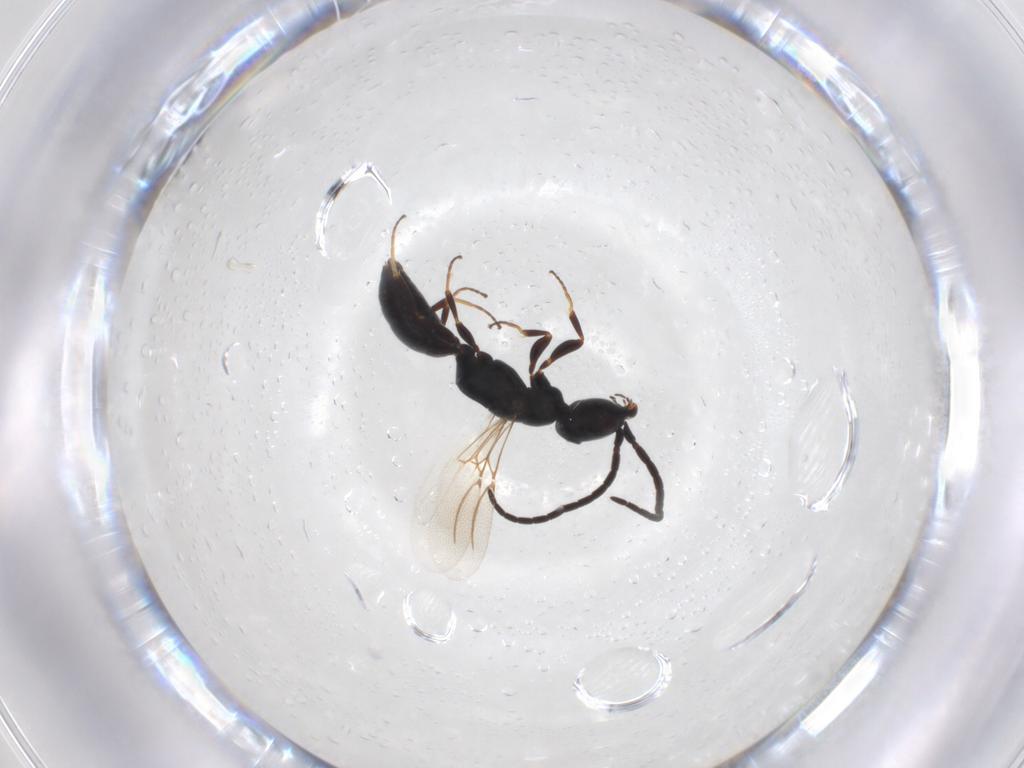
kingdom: Animalia
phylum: Arthropoda
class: Insecta
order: Hymenoptera
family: Bethylidae
